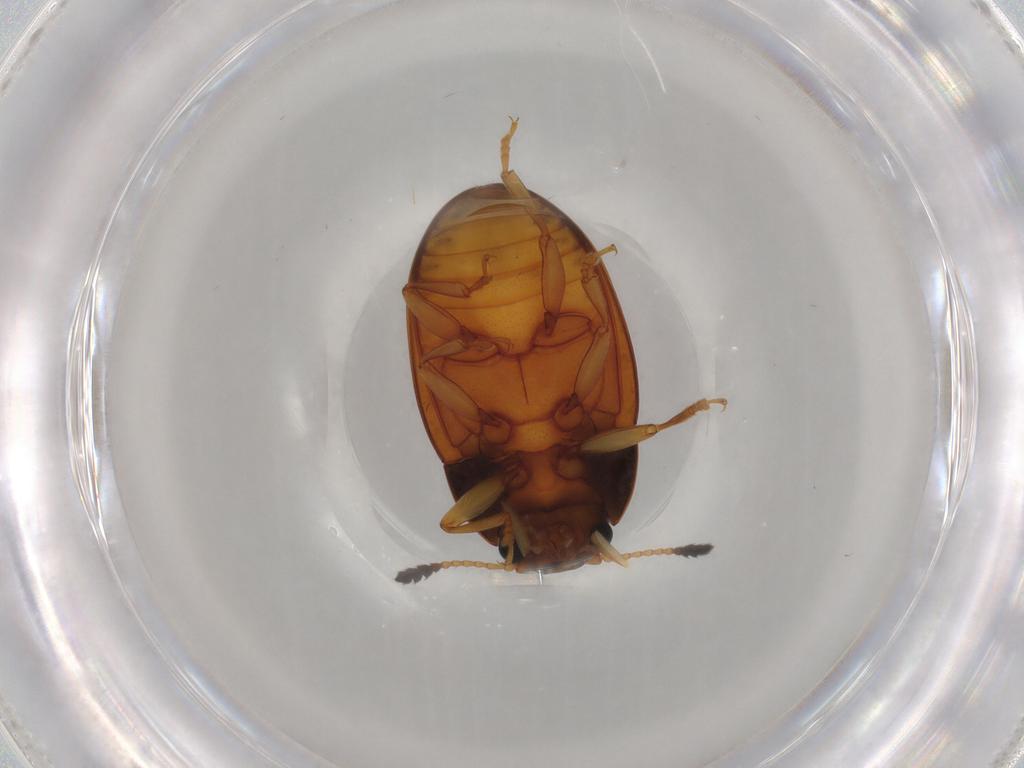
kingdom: Animalia
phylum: Arthropoda
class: Insecta
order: Coleoptera
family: Erotylidae
